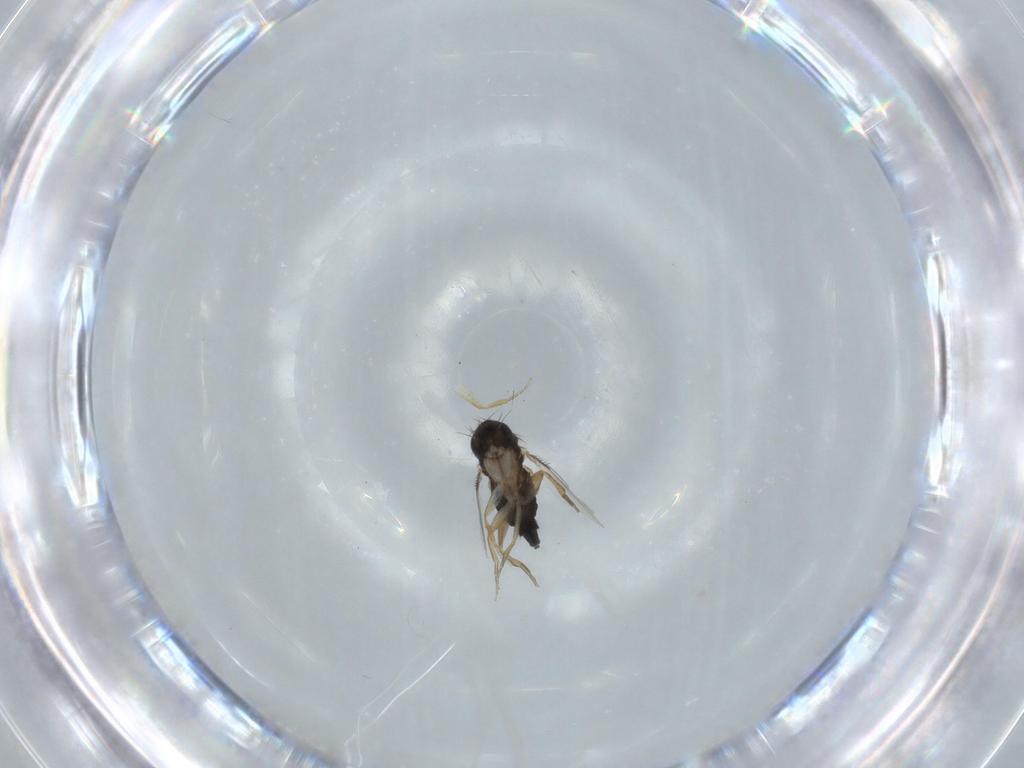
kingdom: Animalia
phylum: Arthropoda
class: Insecta
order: Diptera
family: Phoridae
